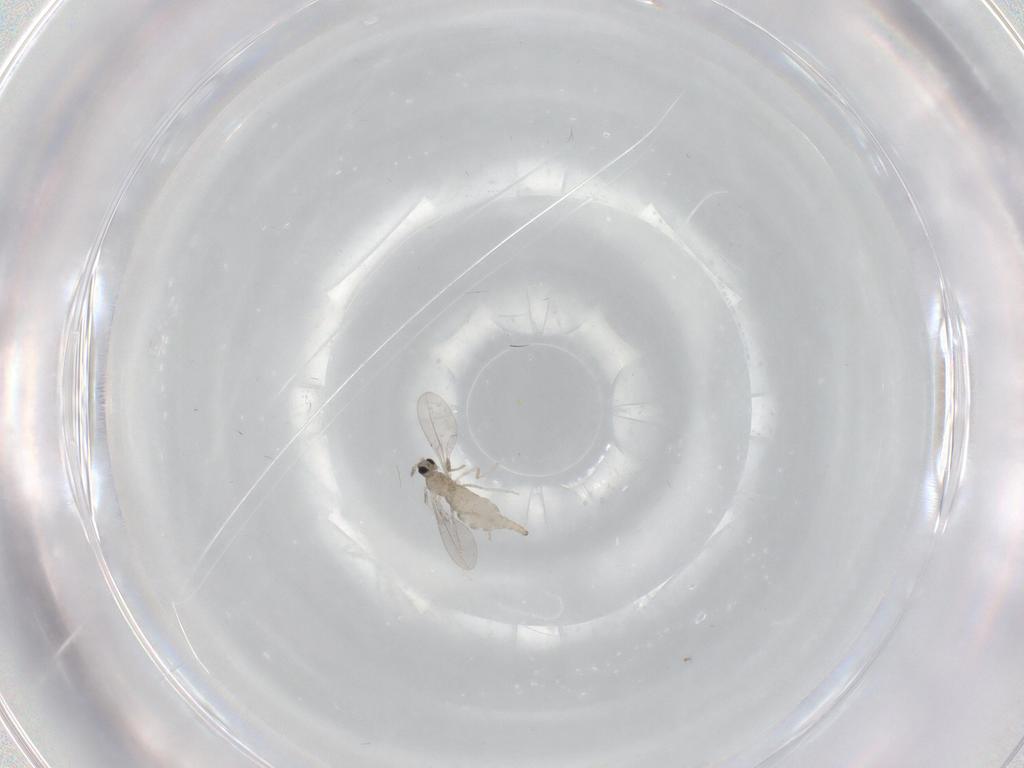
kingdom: Animalia
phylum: Arthropoda
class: Insecta
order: Diptera
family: Cecidomyiidae
